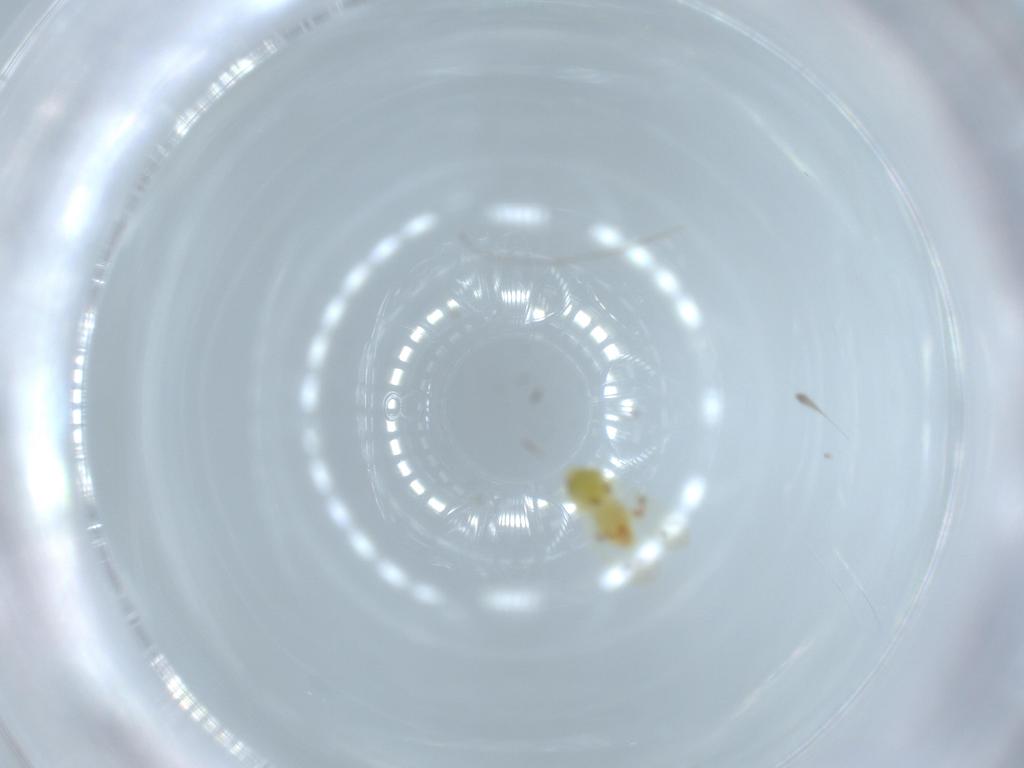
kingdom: Animalia
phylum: Arthropoda
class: Insecta
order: Hemiptera
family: Aleyrodidae
